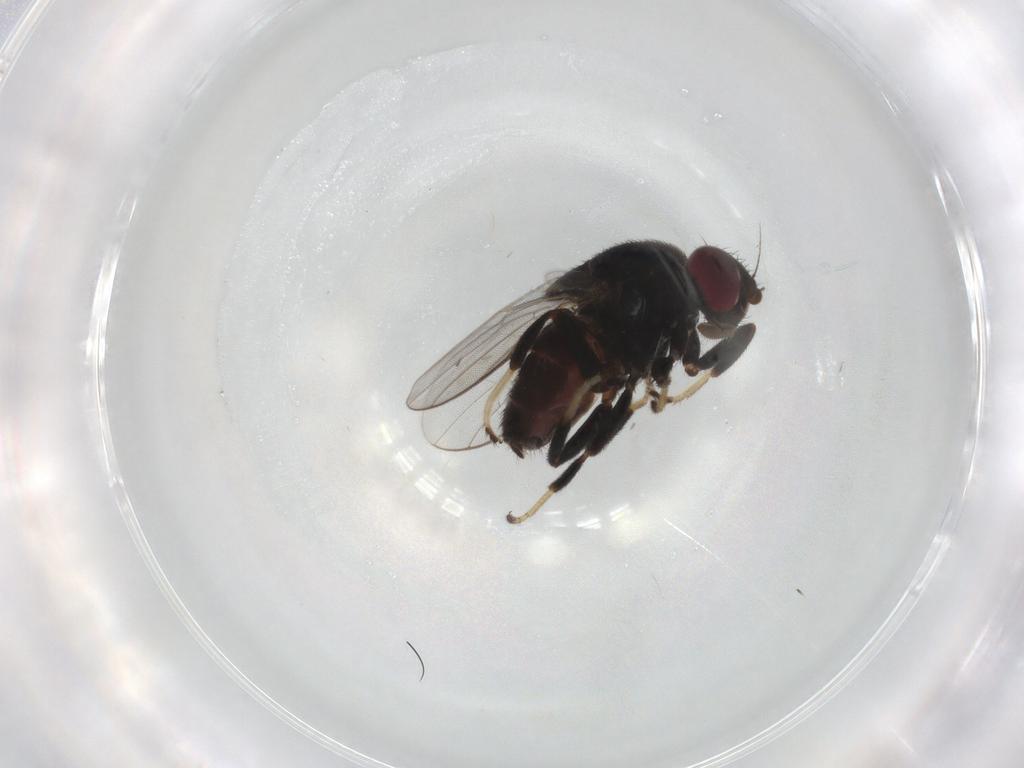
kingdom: Animalia
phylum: Arthropoda
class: Insecta
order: Diptera
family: Chloropidae
